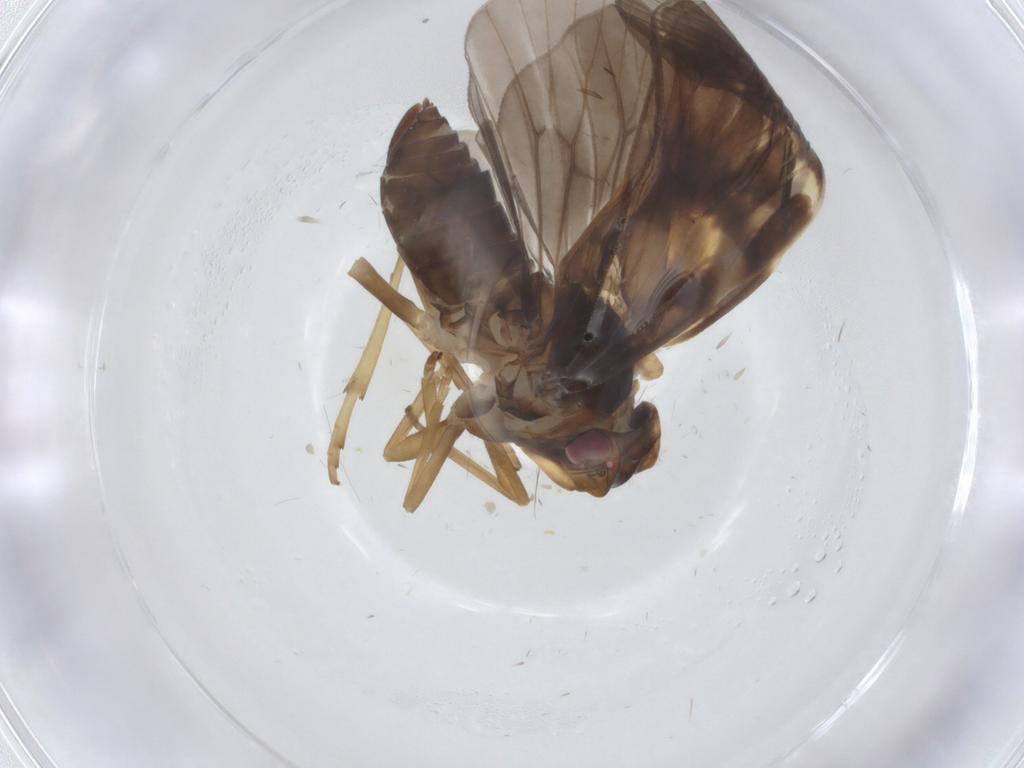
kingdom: Animalia
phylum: Arthropoda
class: Insecta
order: Hemiptera
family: Cixiidae
